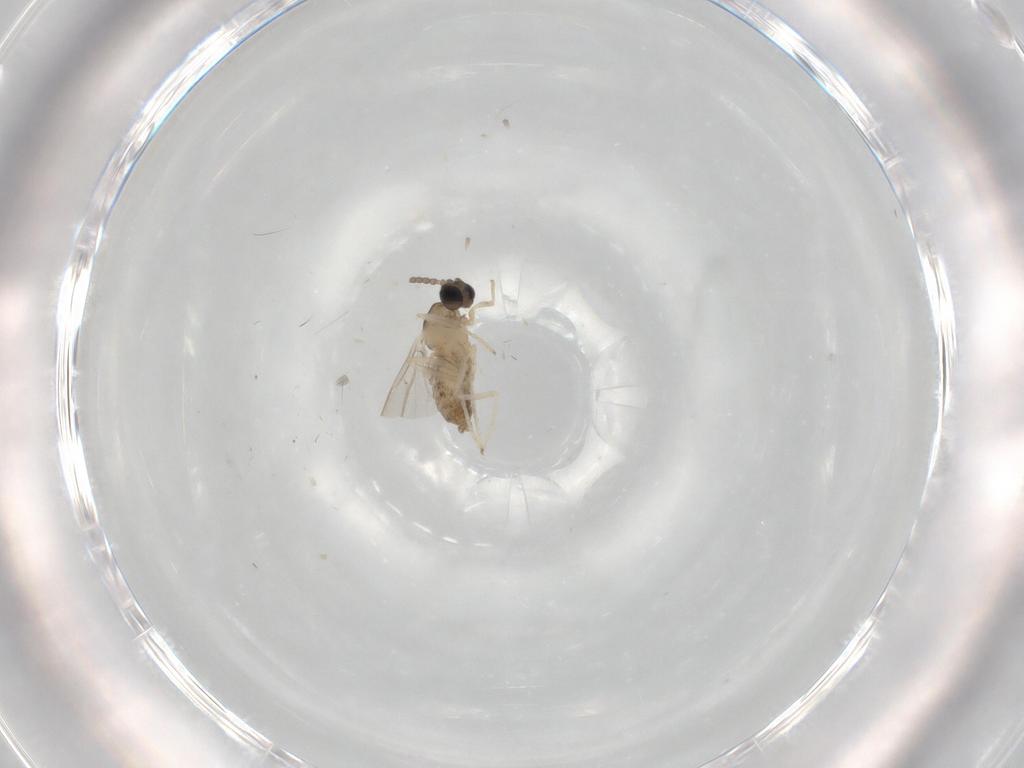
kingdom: Animalia
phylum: Arthropoda
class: Insecta
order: Diptera
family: Cecidomyiidae
